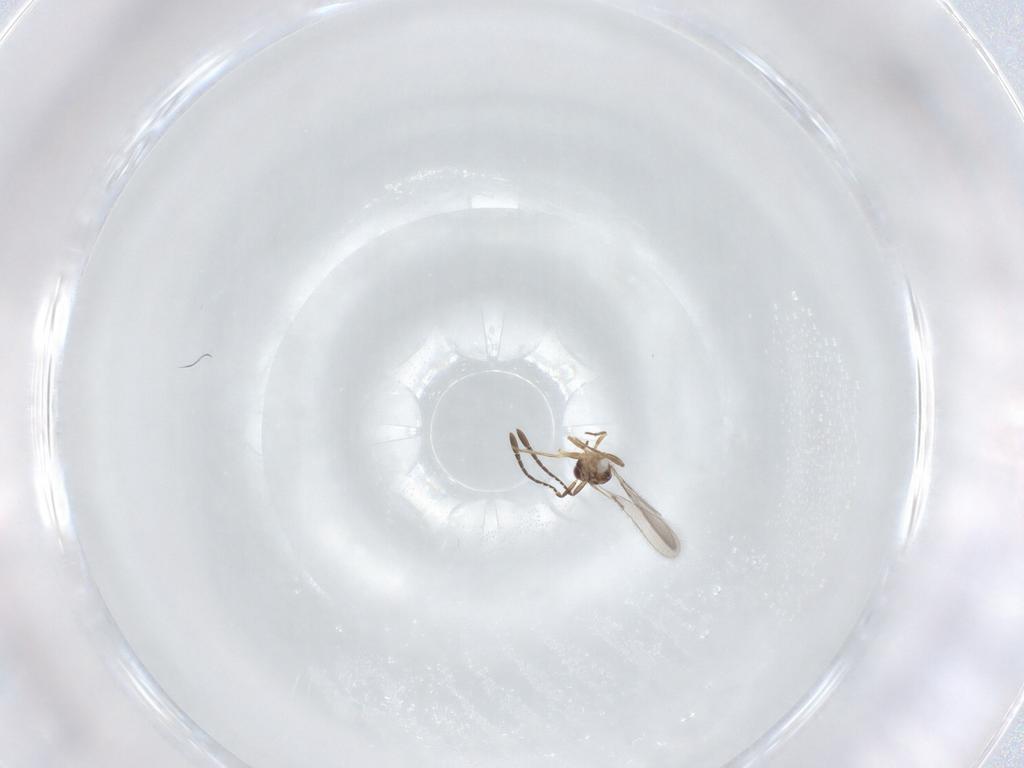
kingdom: Animalia
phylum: Arthropoda
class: Insecta
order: Hymenoptera
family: Mymaridae
